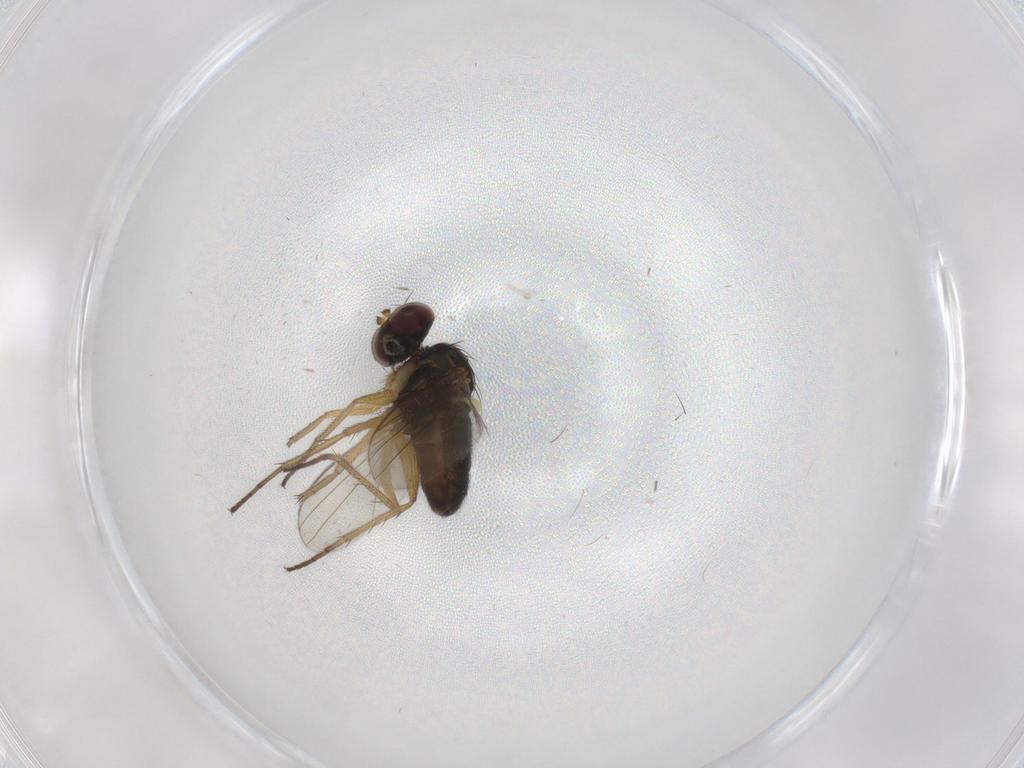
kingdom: Animalia
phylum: Arthropoda
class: Insecta
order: Diptera
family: Dolichopodidae
